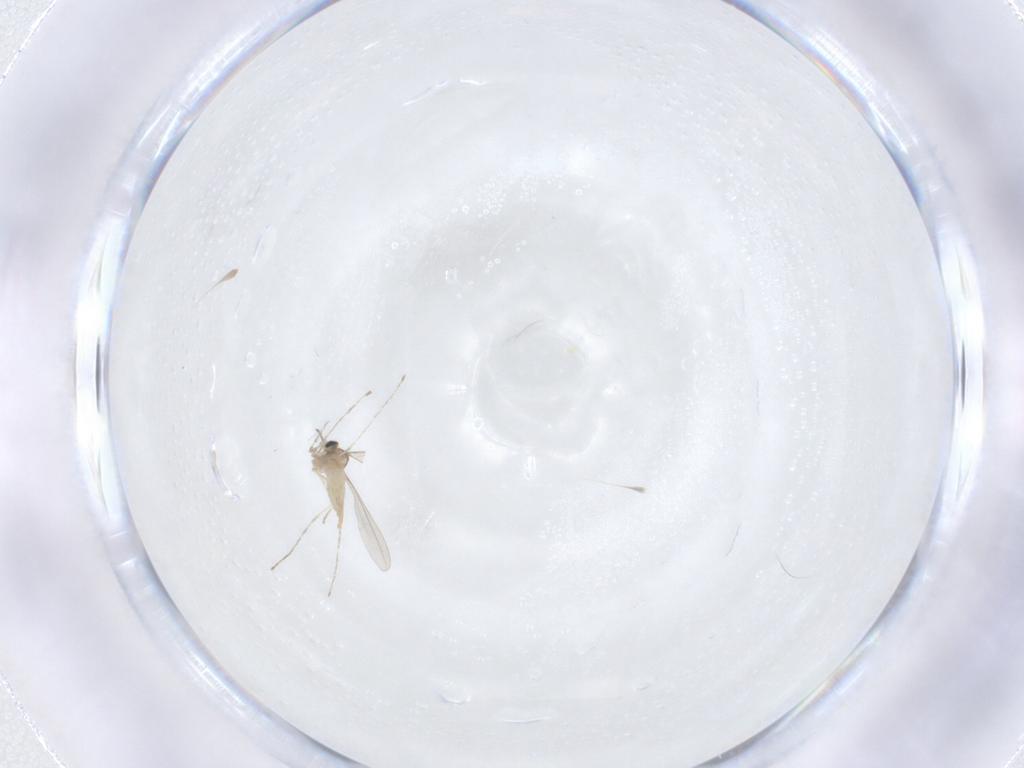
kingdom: Animalia
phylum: Arthropoda
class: Insecta
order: Diptera
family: Cecidomyiidae
